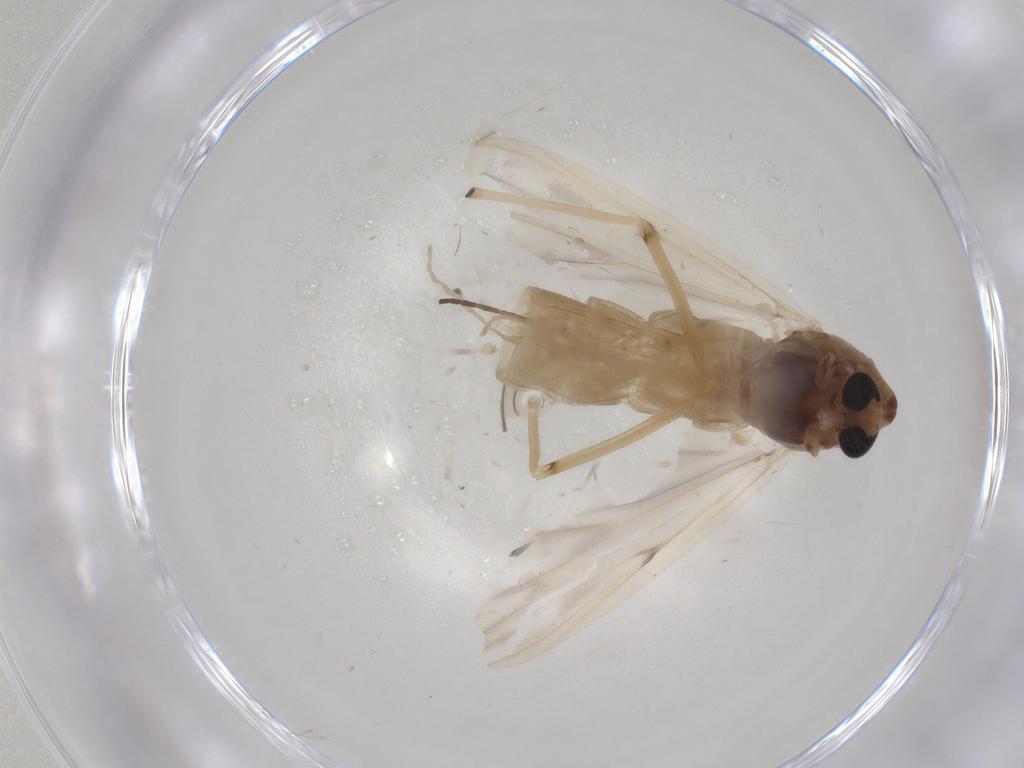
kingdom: Animalia
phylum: Arthropoda
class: Insecta
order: Diptera
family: Chironomidae
